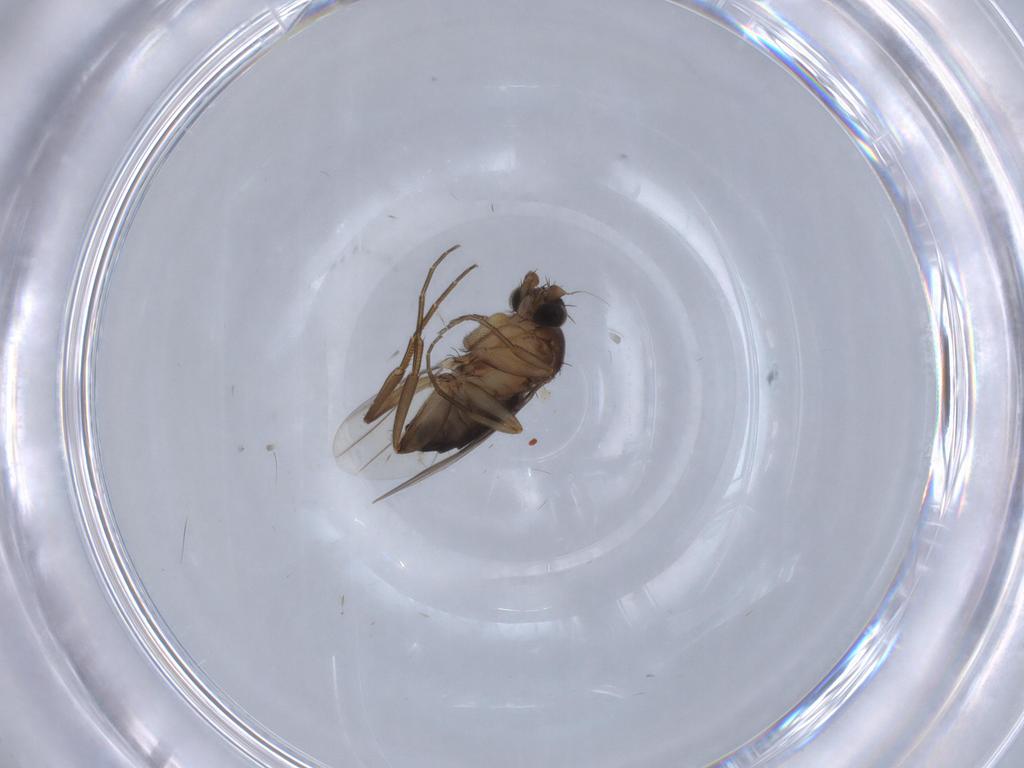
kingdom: Animalia
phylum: Arthropoda
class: Insecta
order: Diptera
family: Phoridae
